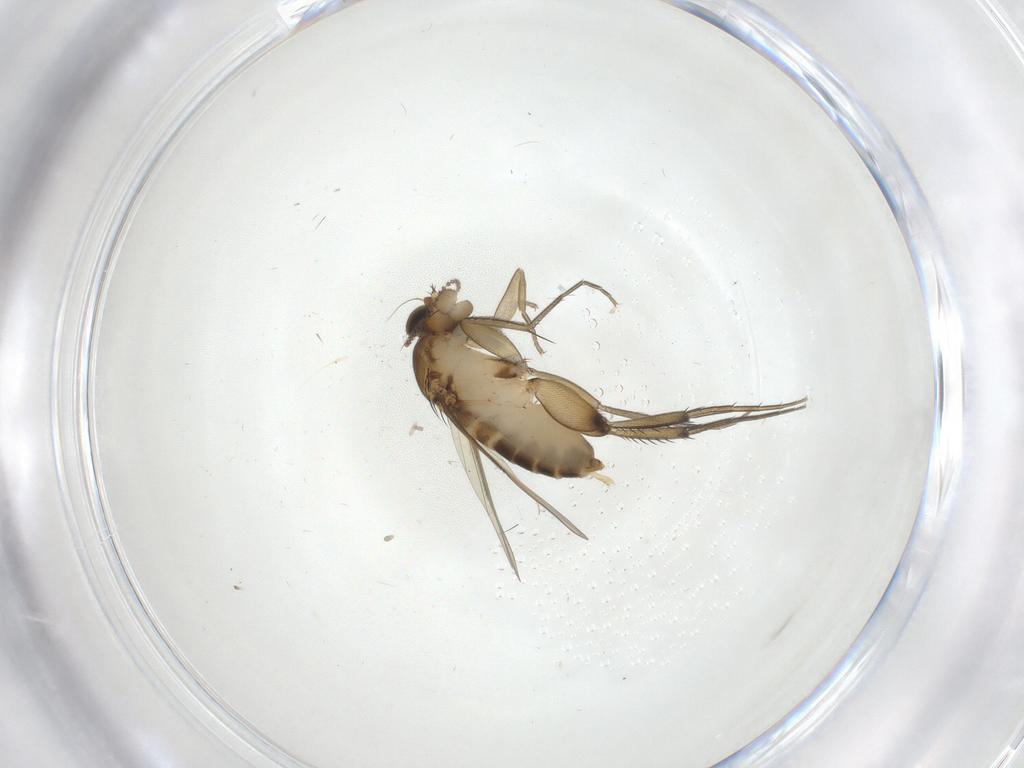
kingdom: Animalia
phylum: Arthropoda
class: Insecta
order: Diptera
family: Phoridae
